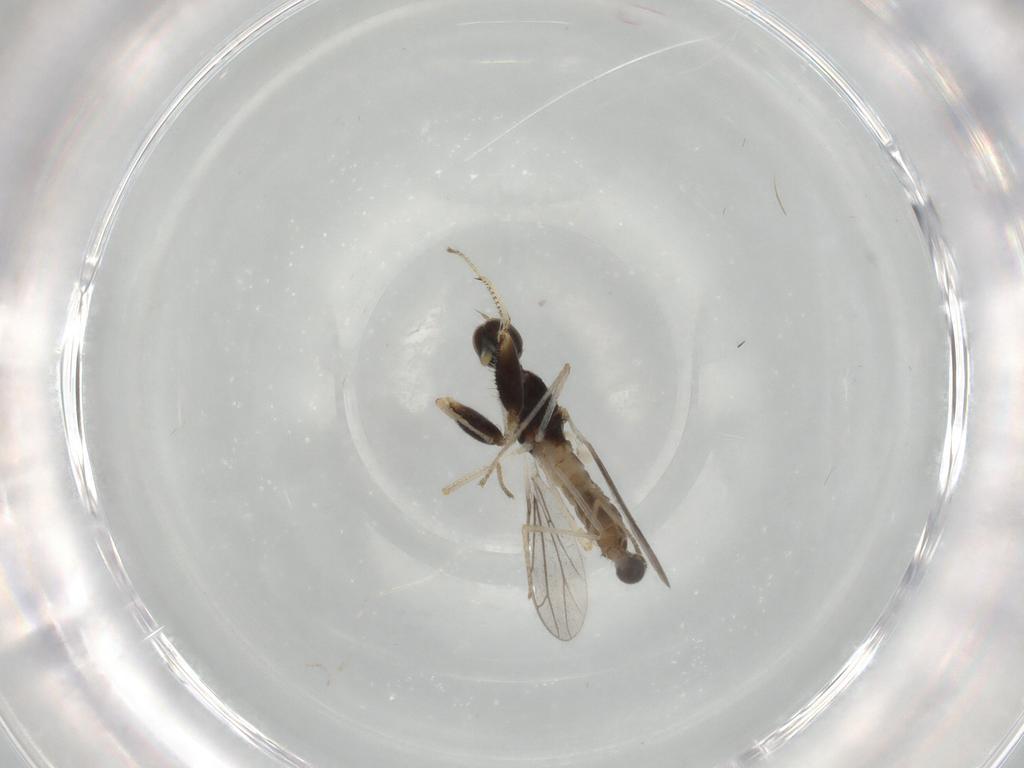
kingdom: Animalia
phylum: Arthropoda
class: Insecta
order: Diptera
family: Empididae
